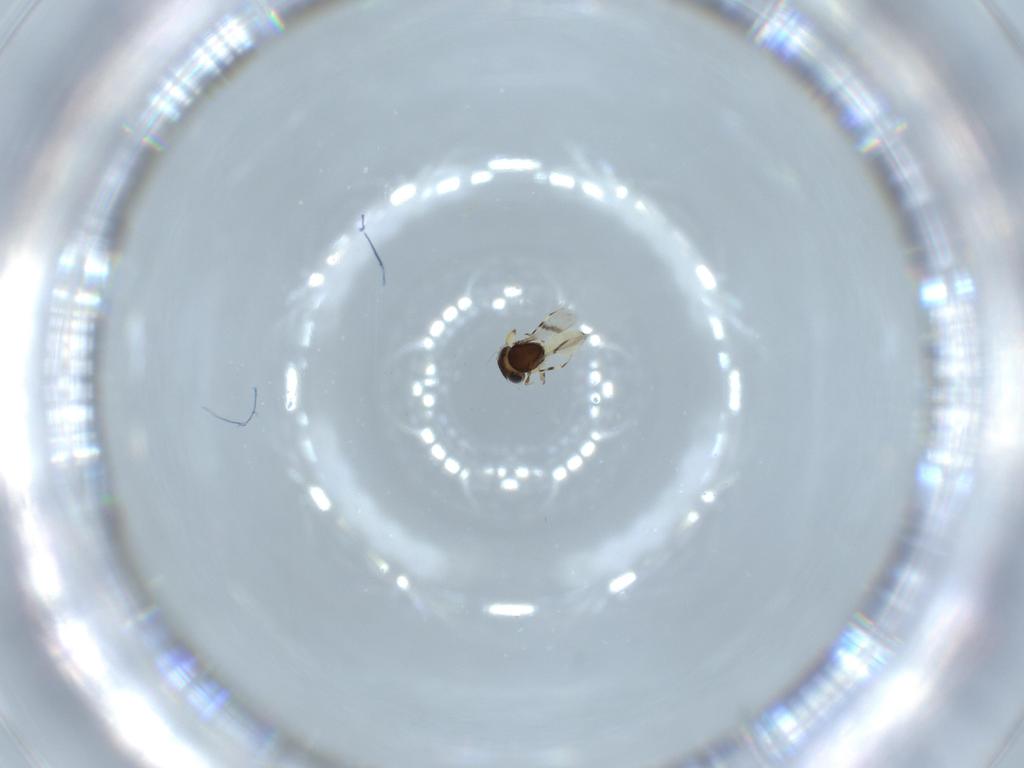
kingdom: Animalia
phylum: Arthropoda
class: Insecta
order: Hymenoptera
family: Scelionidae
